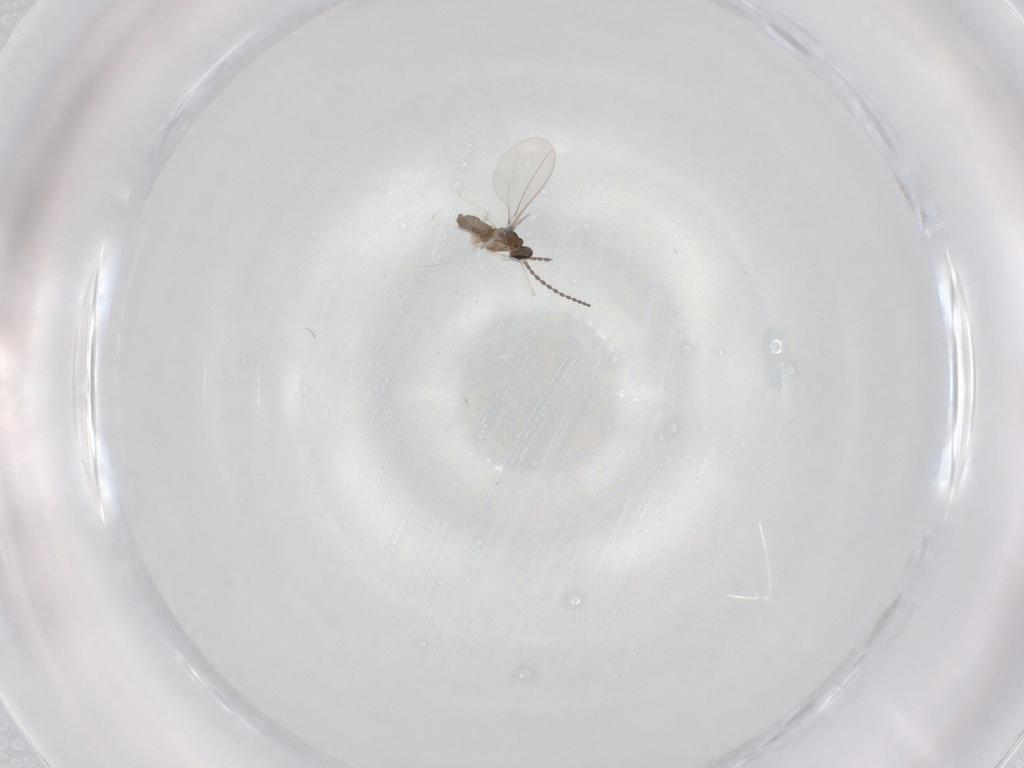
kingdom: Animalia
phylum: Arthropoda
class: Insecta
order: Diptera
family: Cecidomyiidae
